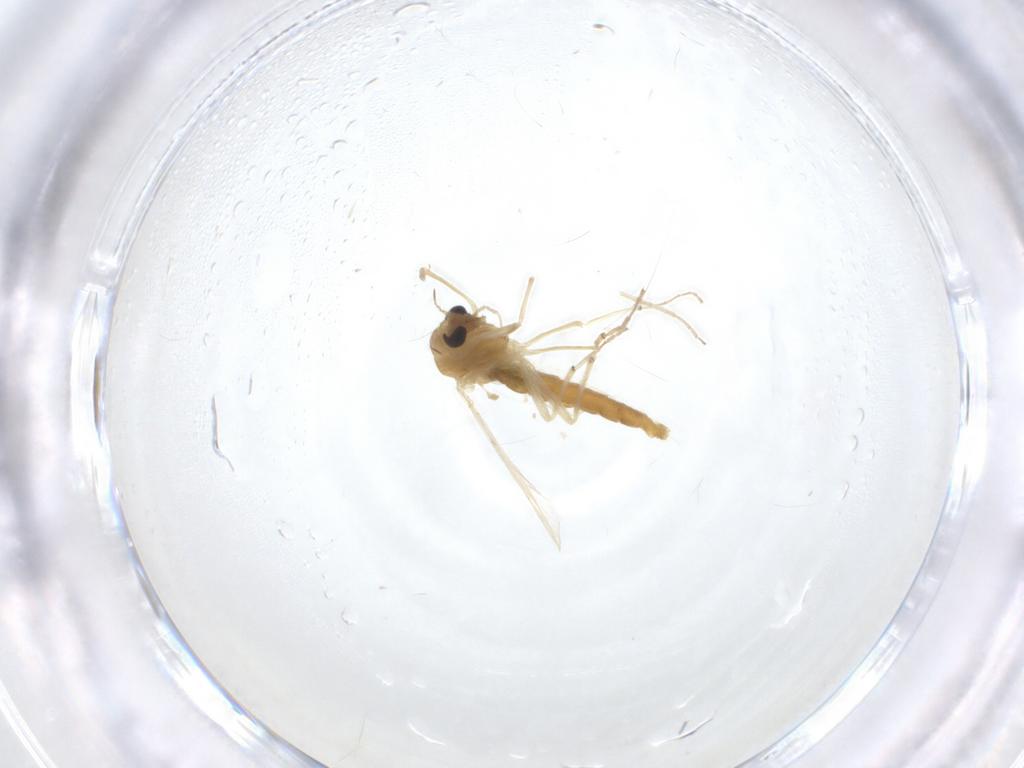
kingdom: Animalia
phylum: Arthropoda
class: Insecta
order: Diptera
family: Chironomidae
